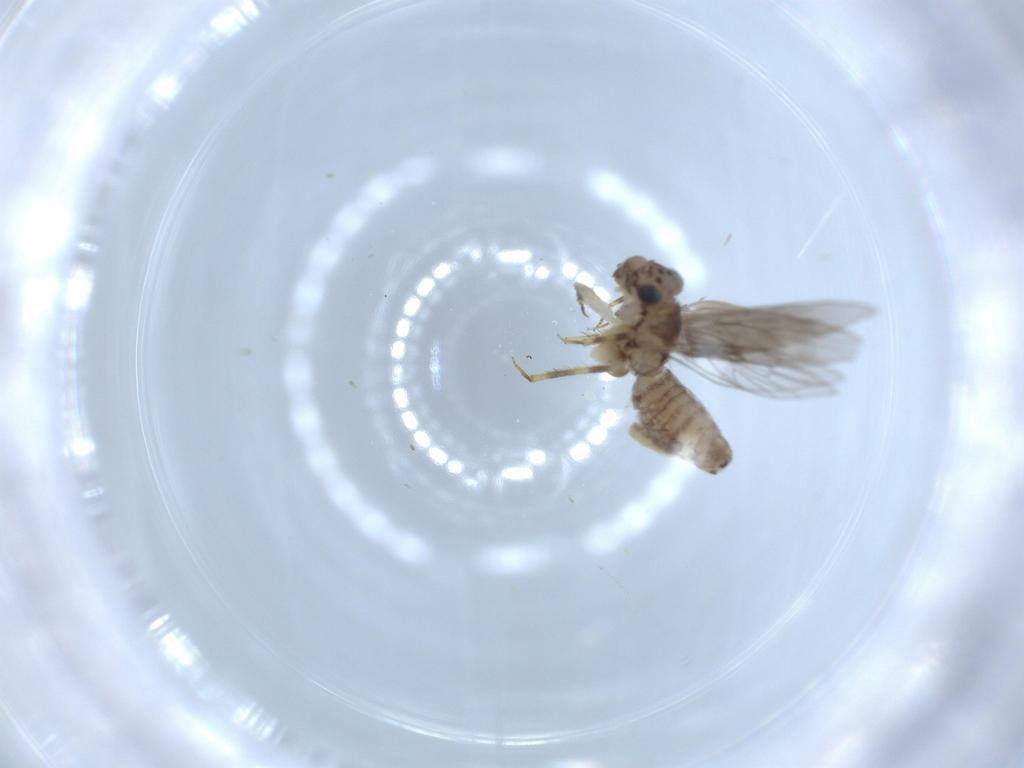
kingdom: Animalia
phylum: Arthropoda
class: Insecta
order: Psocodea
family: Lepidopsocidae
